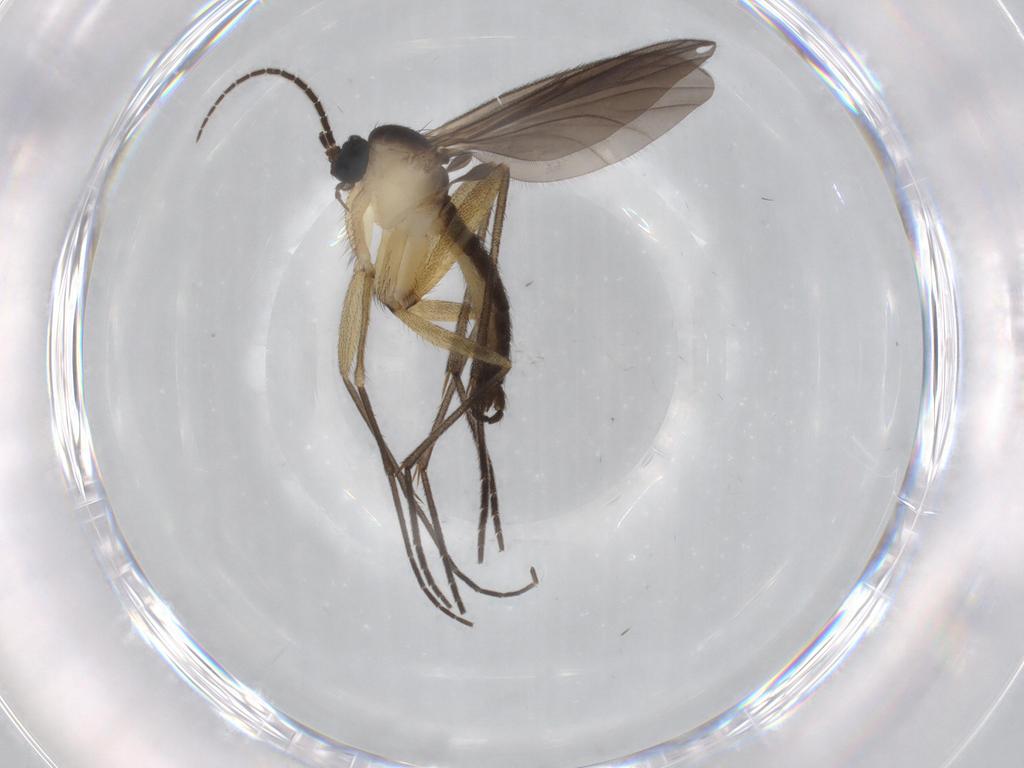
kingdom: Animalia
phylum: Arthropoda
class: Insecta
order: Diptera
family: Sciaridae
